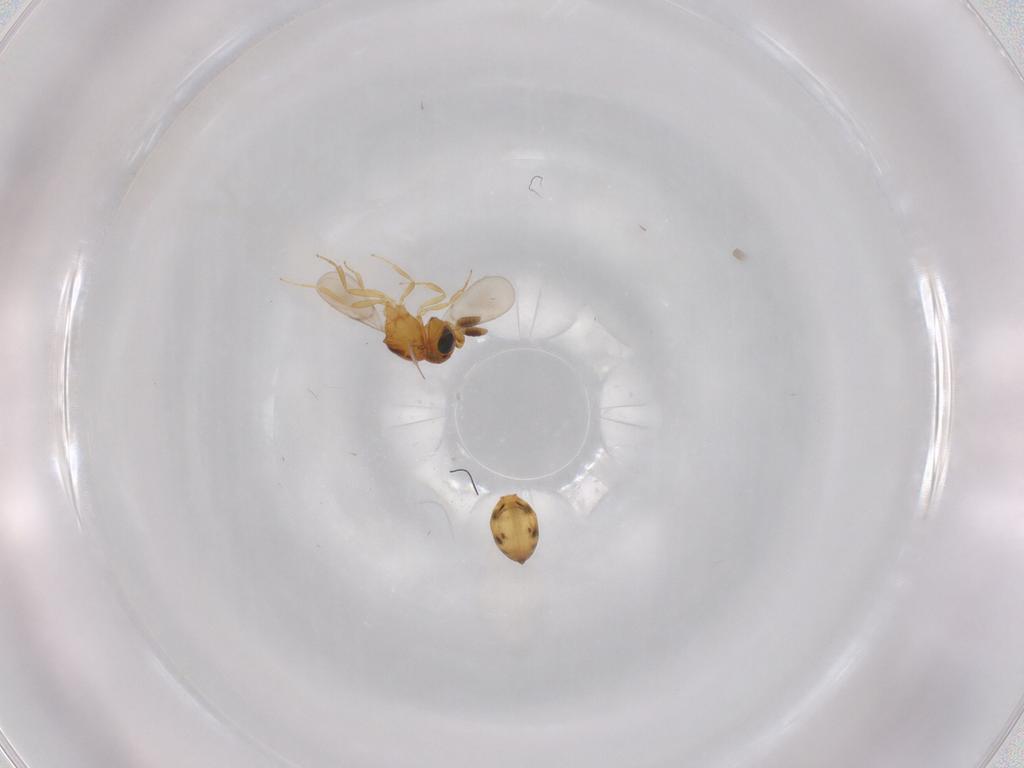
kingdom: Animalia
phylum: Arthropoda
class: Insecta
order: Hymenoptera
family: Scelionidae
